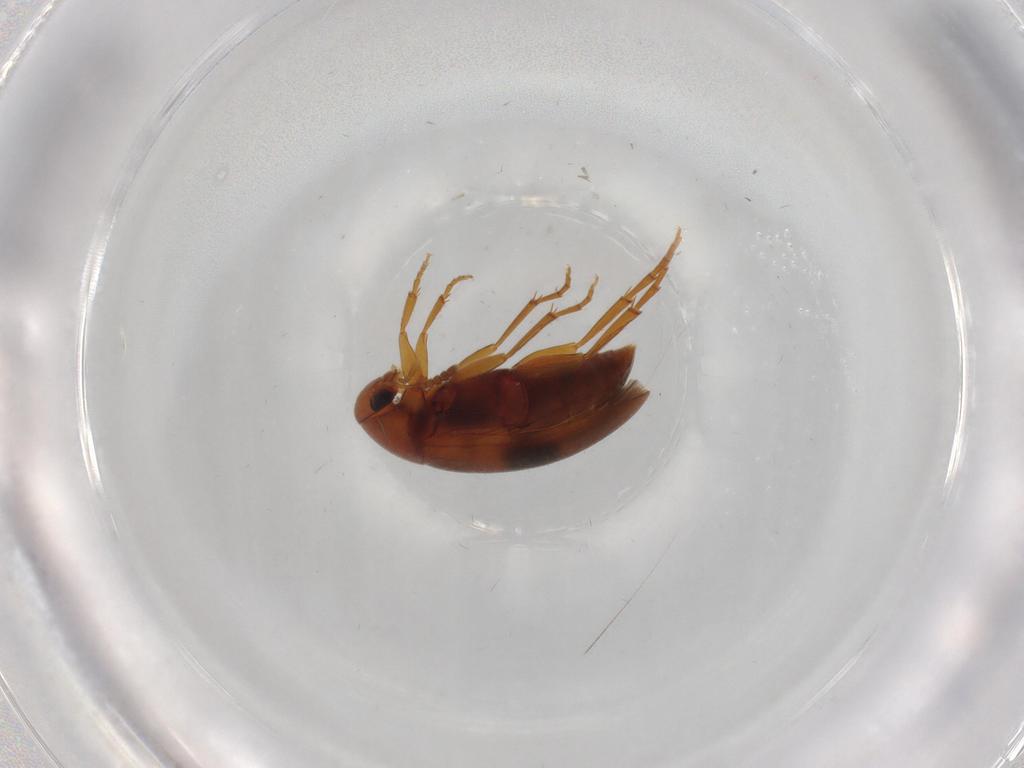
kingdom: Animalia
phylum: Arthropoda
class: Insecta
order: Coleoptera
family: Scraptiidae
